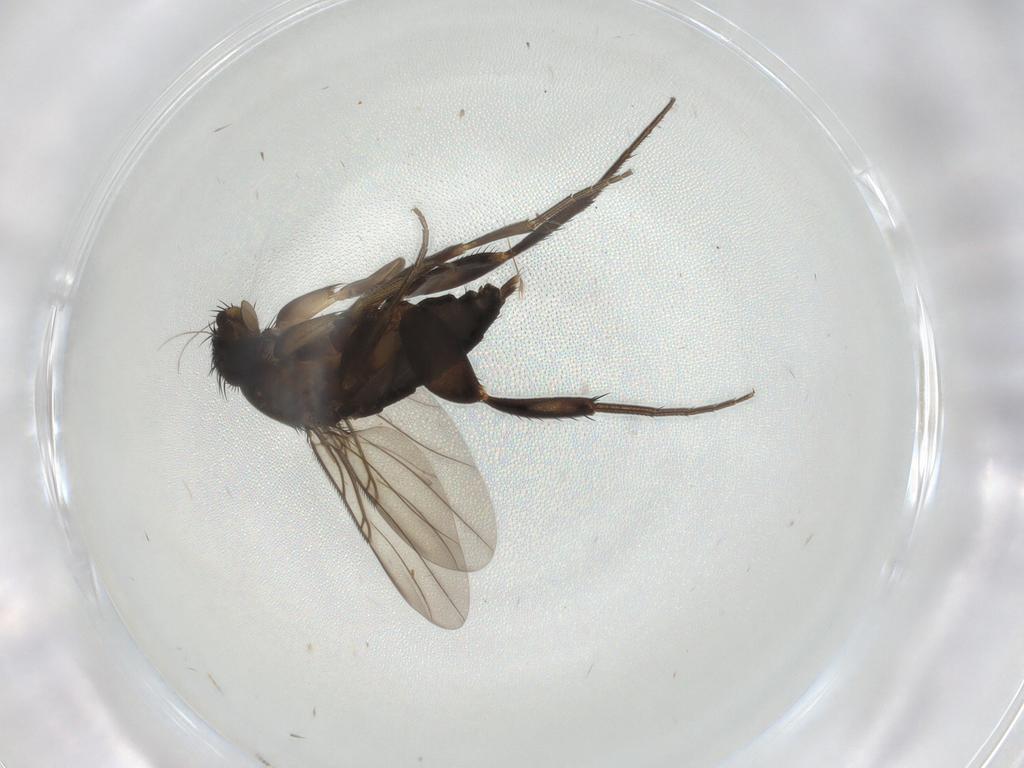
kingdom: Animalia
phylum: Arthropoda
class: Insecta
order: Diptera
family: Phoridae
